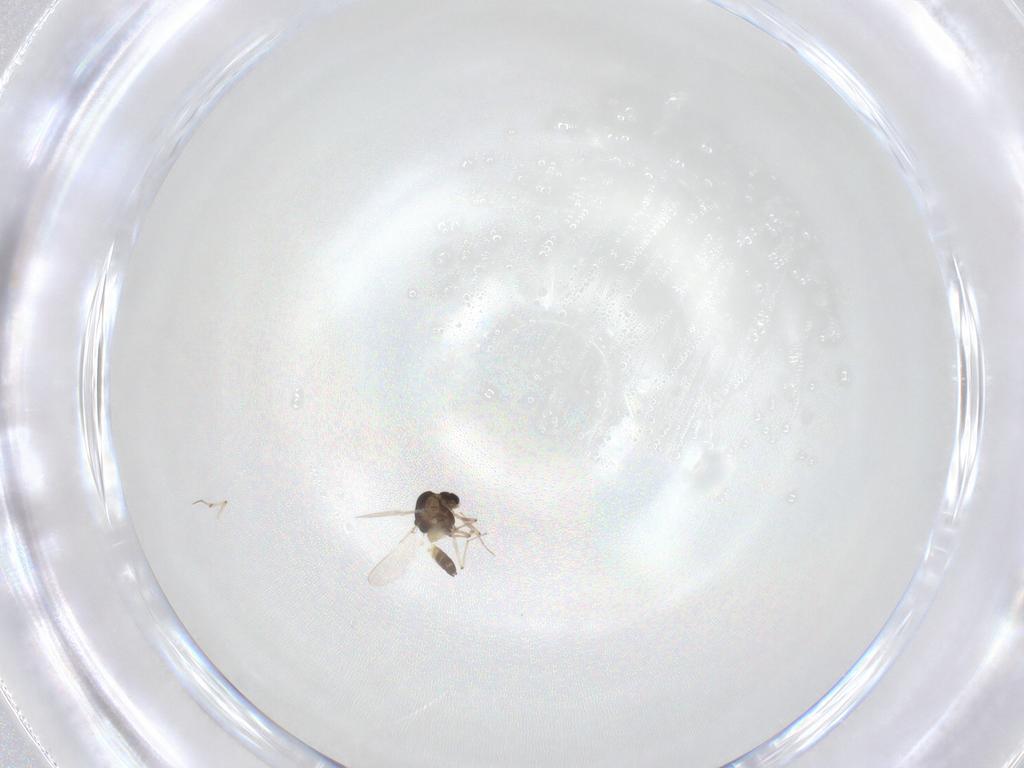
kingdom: Animalia
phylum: Arthropoda
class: Insecta
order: Diptera
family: Chironomidae
